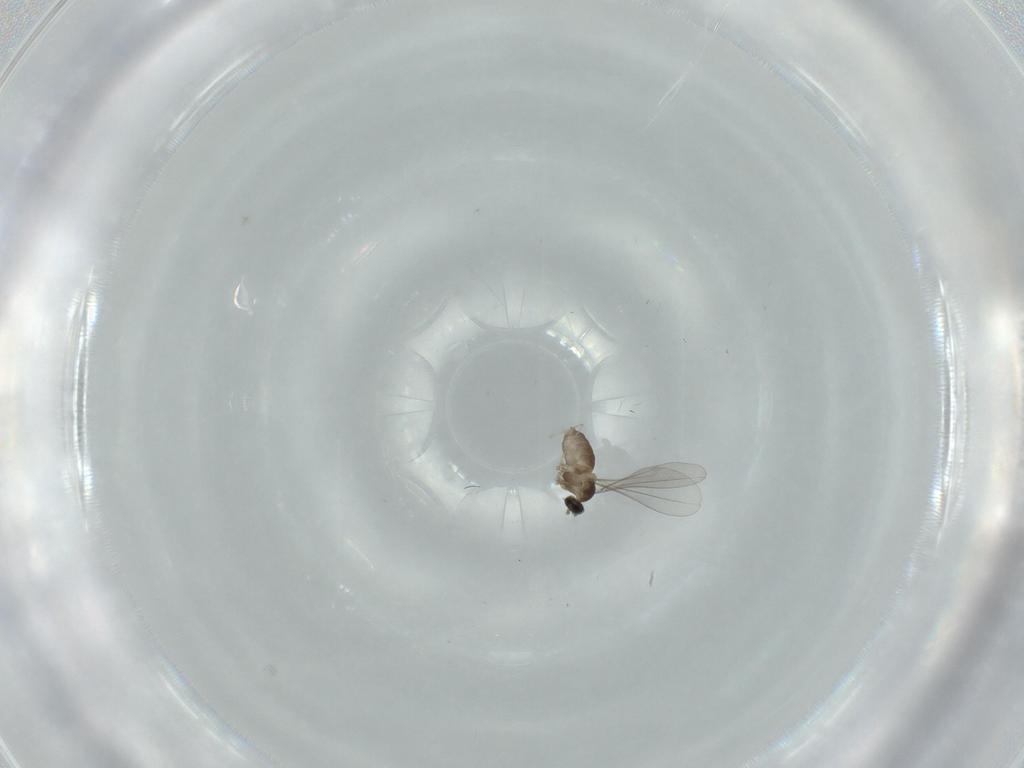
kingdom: Animalia
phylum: Arthropoda
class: Insecta
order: Diptera
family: Cecidomyiidae
